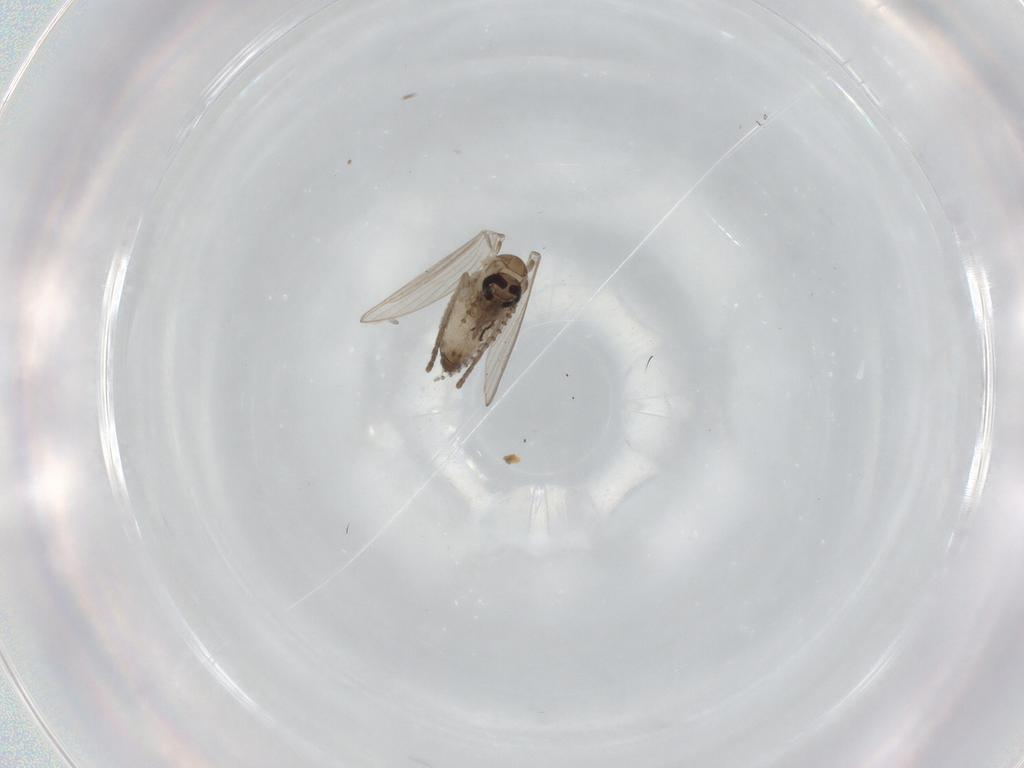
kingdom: Animalia
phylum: Arthropoda
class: Insecta
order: Diptera
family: Psychodidae
